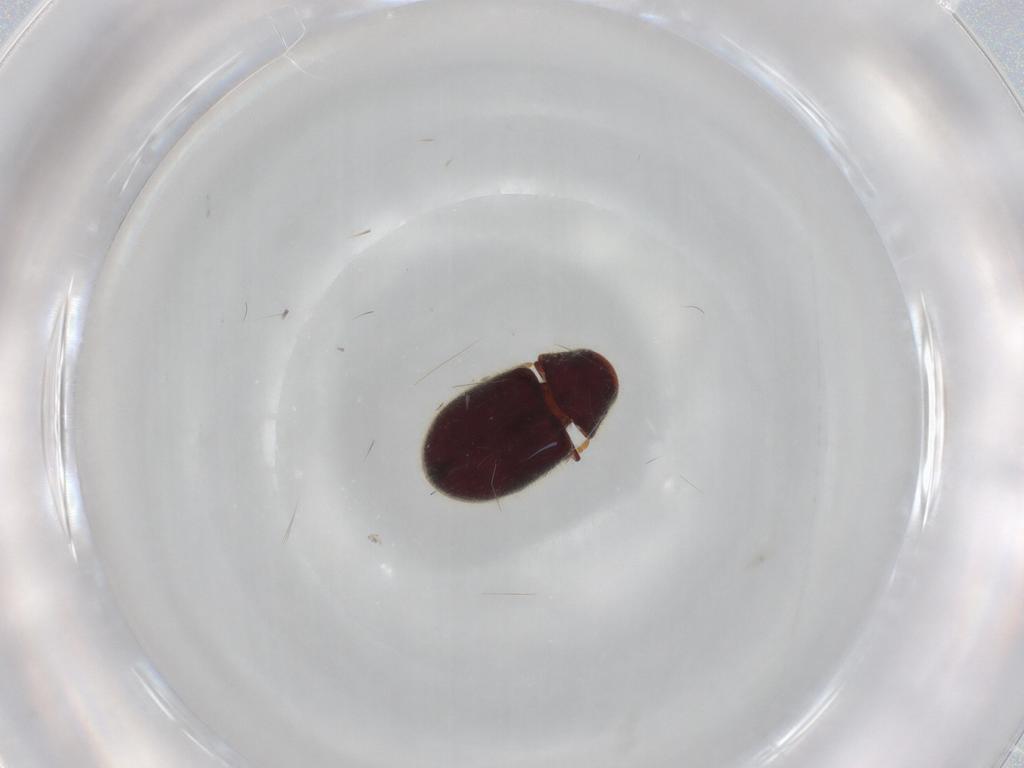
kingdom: Animalia
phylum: Arthropoda
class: Insecta
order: Coleoptera
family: Ptinidae
